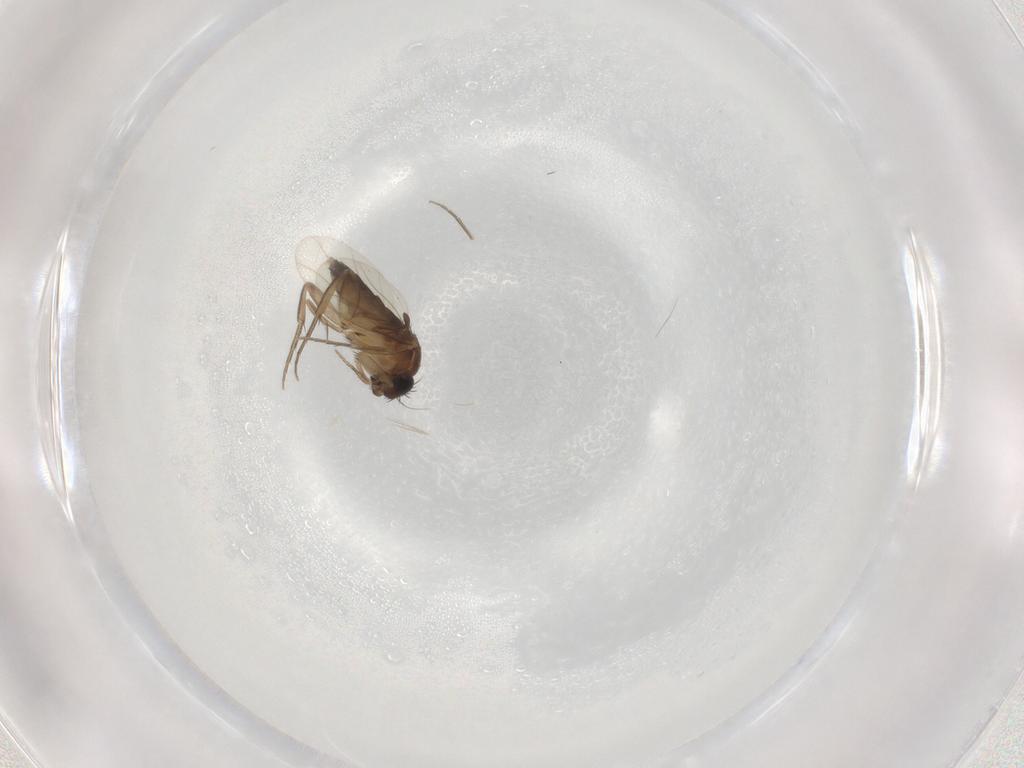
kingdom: Animalia
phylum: Arthropoda
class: Insecta
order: Diptera
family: Phoridae
